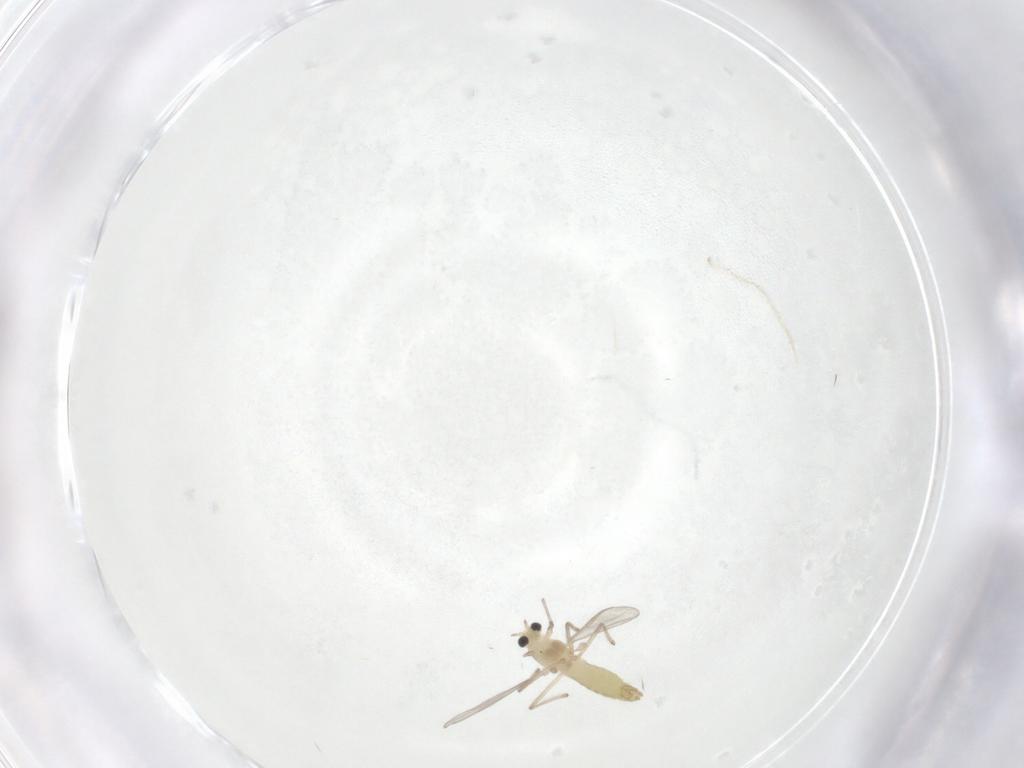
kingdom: Animalia
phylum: Arthropoda
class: Insecta
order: Diptera
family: Chironomidae
